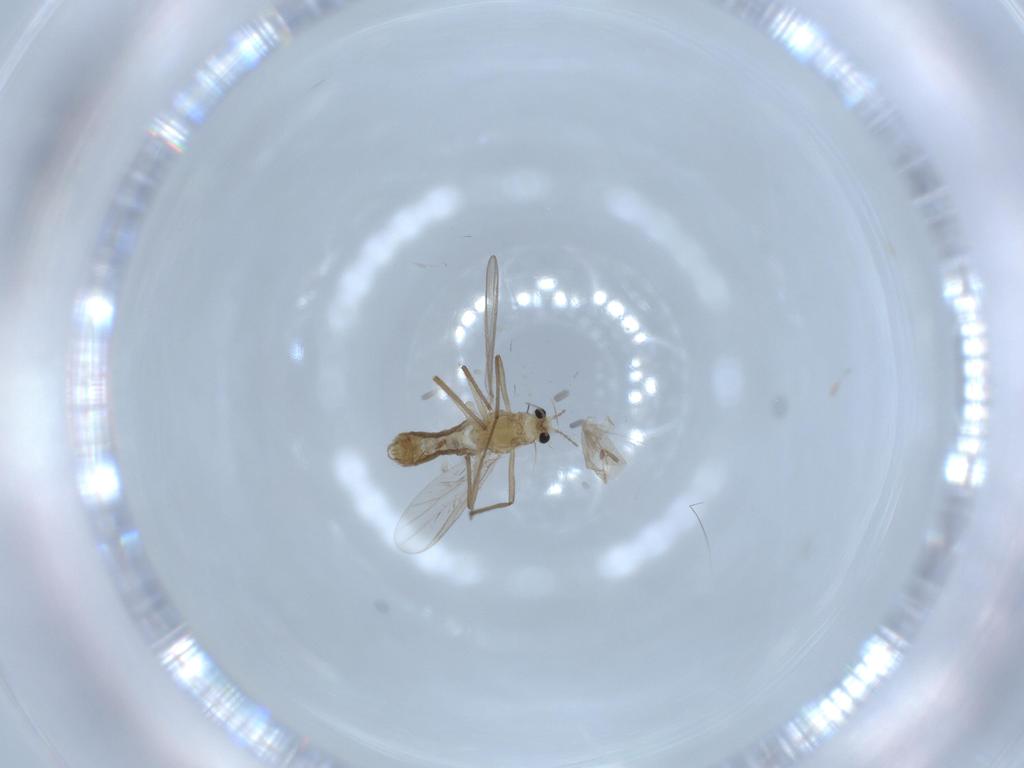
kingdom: Animalia
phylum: Arthropoda
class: Insecta
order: Diptera
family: Chironomidae
